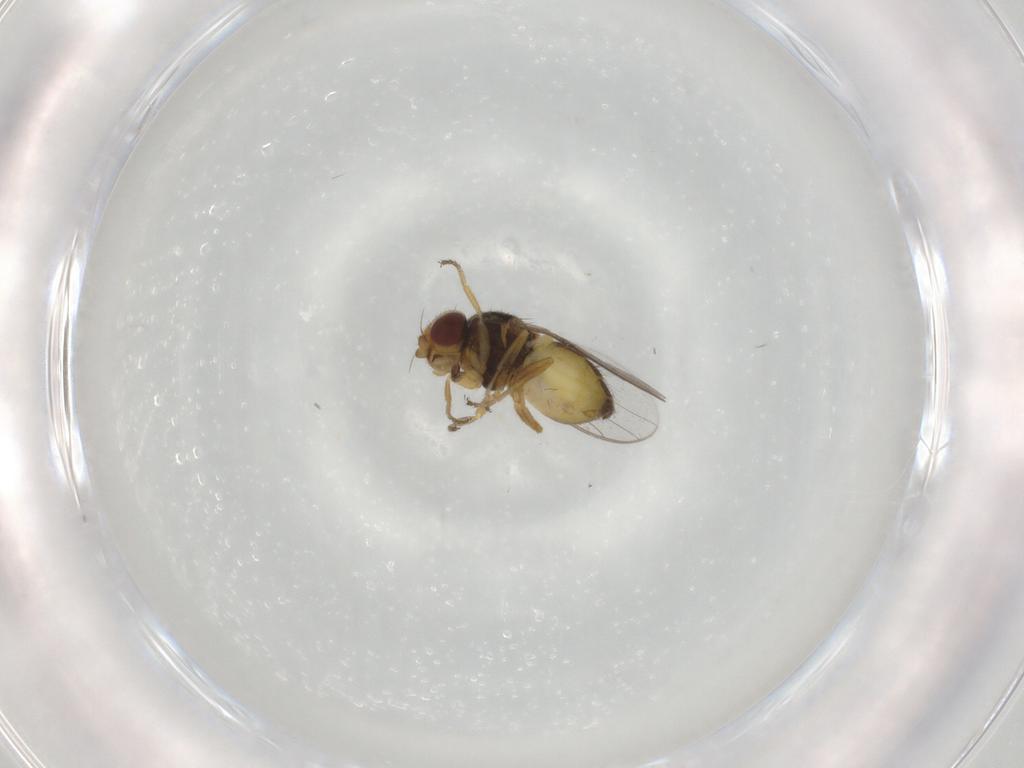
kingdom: Animalia
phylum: Arthropoda
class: Insecta
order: Diptera
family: Chloropidae
